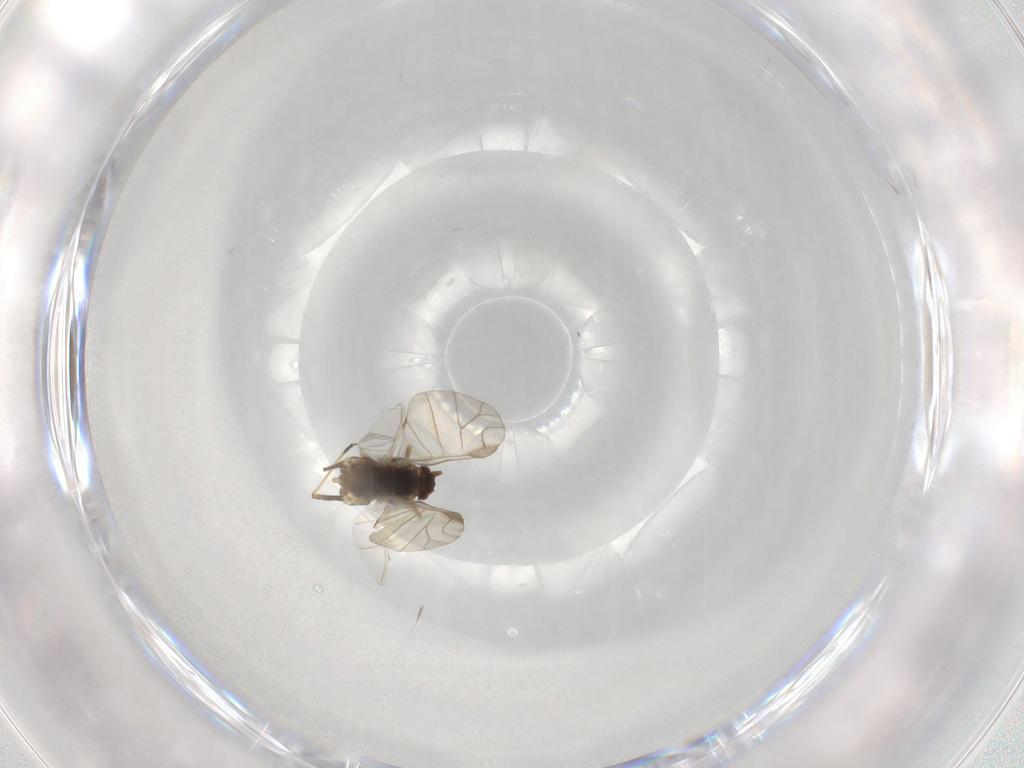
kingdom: Animalia
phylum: Arthropoda
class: Insecta
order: Hemiptera
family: Aphididae
